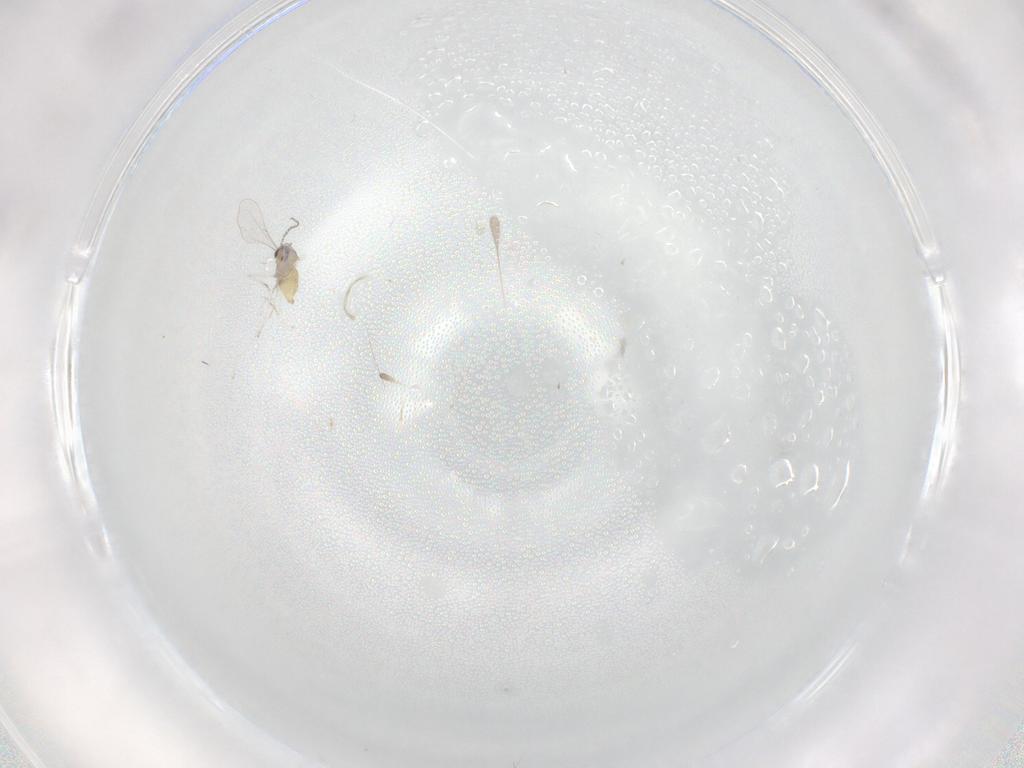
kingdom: Animalia
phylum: Arthropoda
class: Insecta
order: Diptera
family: Cecidomyiidae
